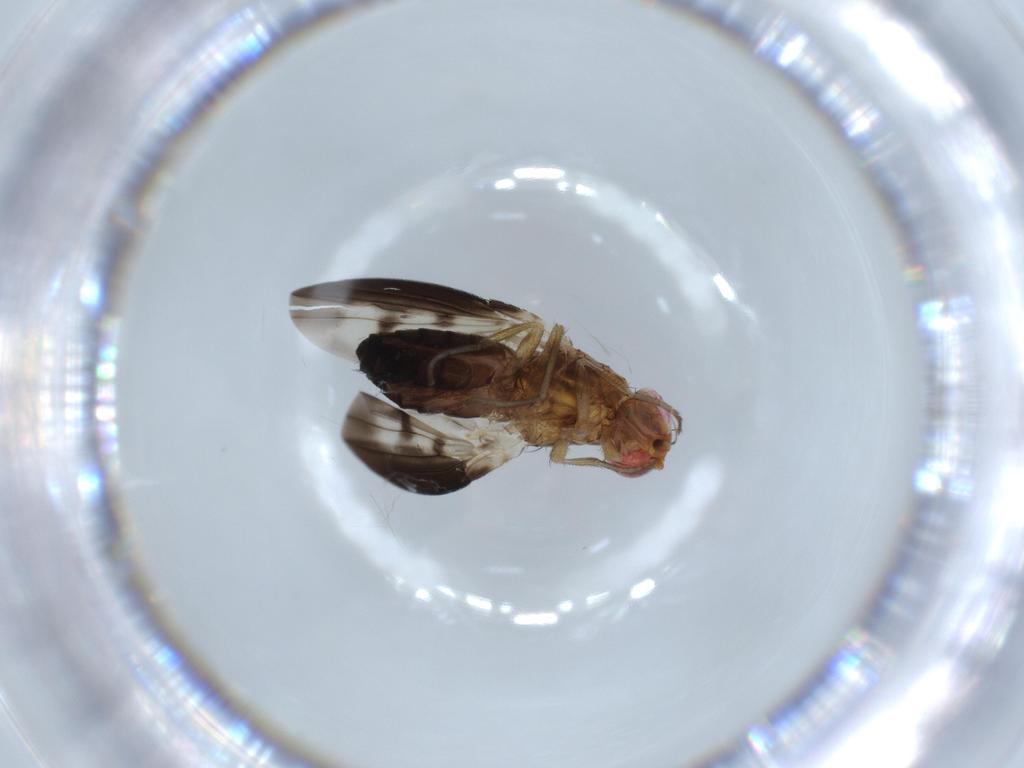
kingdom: Animalia
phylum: Arthropoda
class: Insecta
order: Diptera
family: Heleomyzidae
